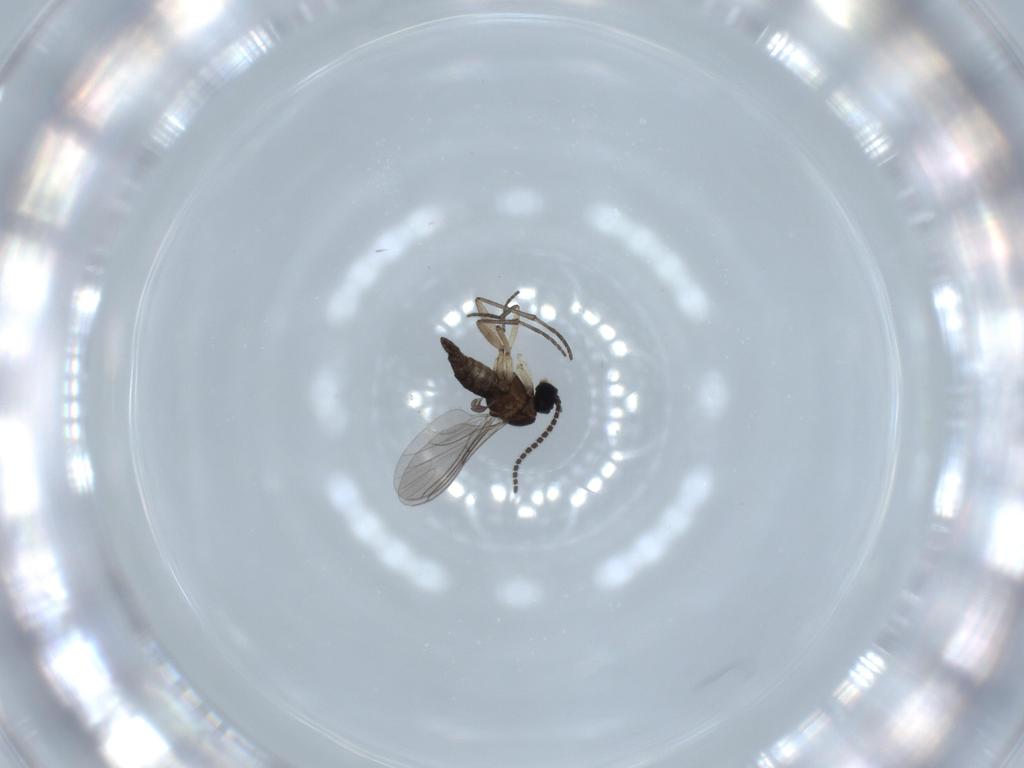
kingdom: Animalia
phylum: Arthropoda
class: Insecta
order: Diptera
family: Sciaridae
